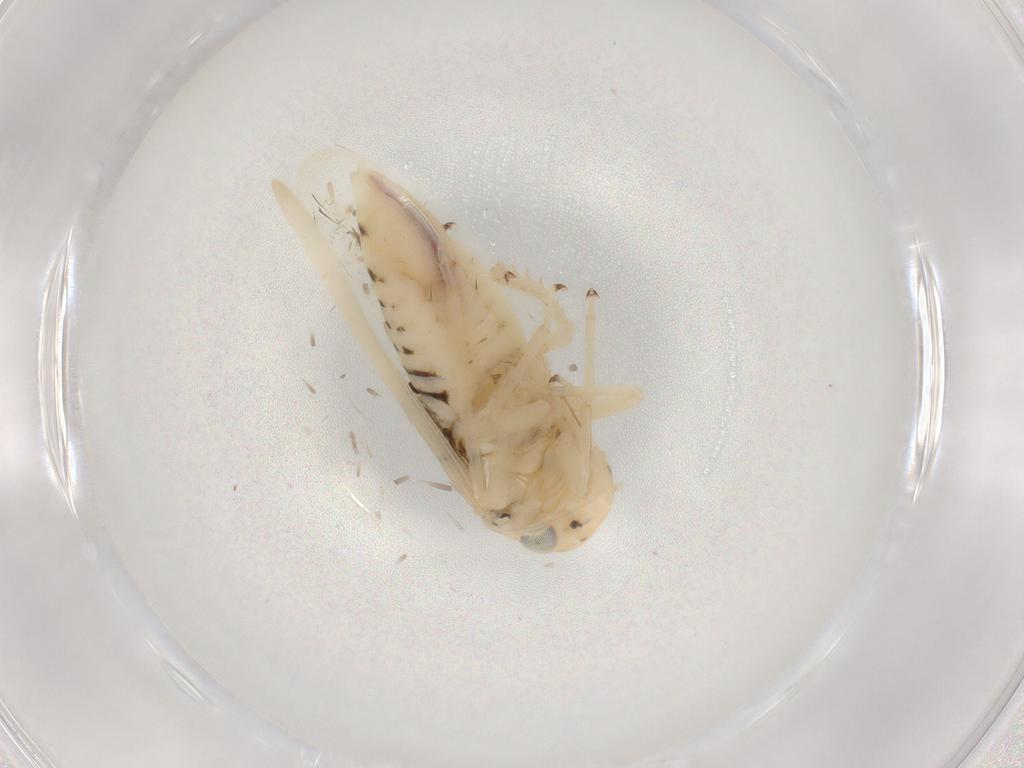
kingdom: Animalia
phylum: Arthropoda
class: Insecta
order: Hemiptera
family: Cicadellidae
